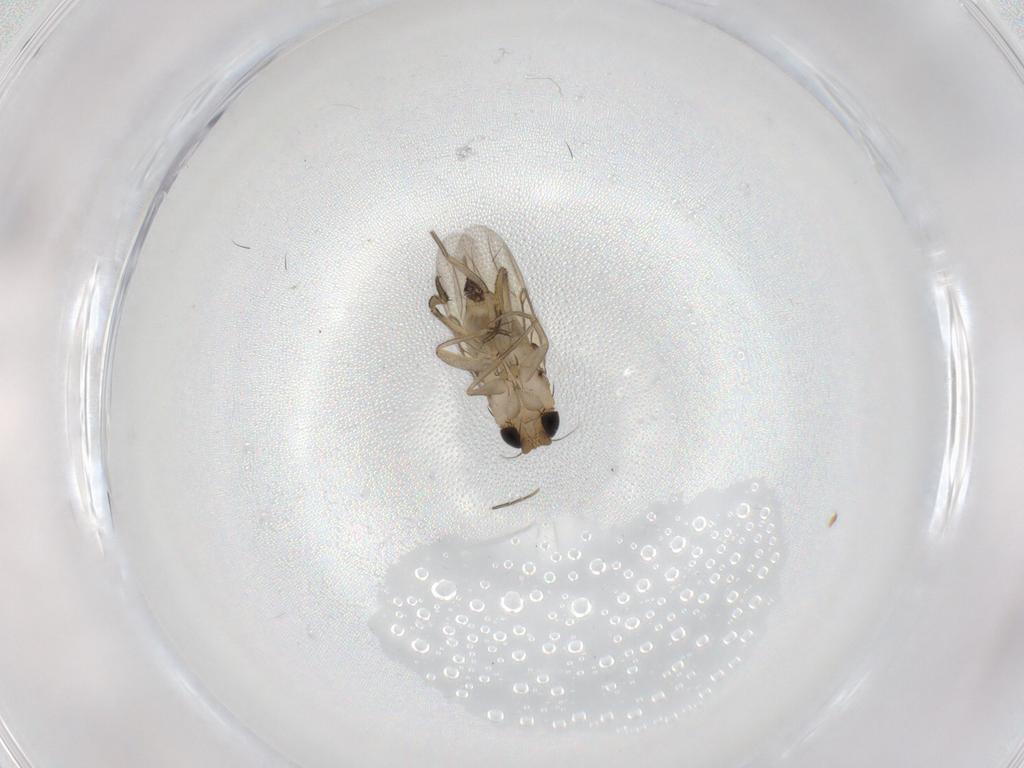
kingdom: Animalia
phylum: Arthropoda
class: Insecta
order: Diptera
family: Phoridae
